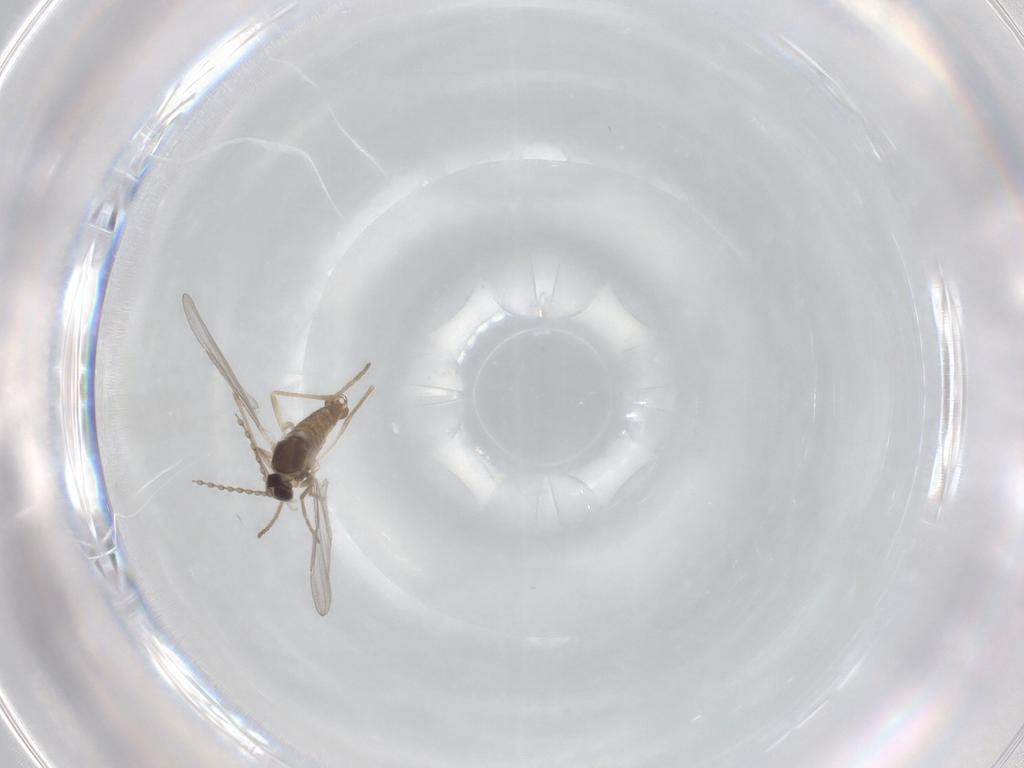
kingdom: Animalia
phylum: Arthropoda
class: Insecta
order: Diptera
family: Cecidomyiidae
